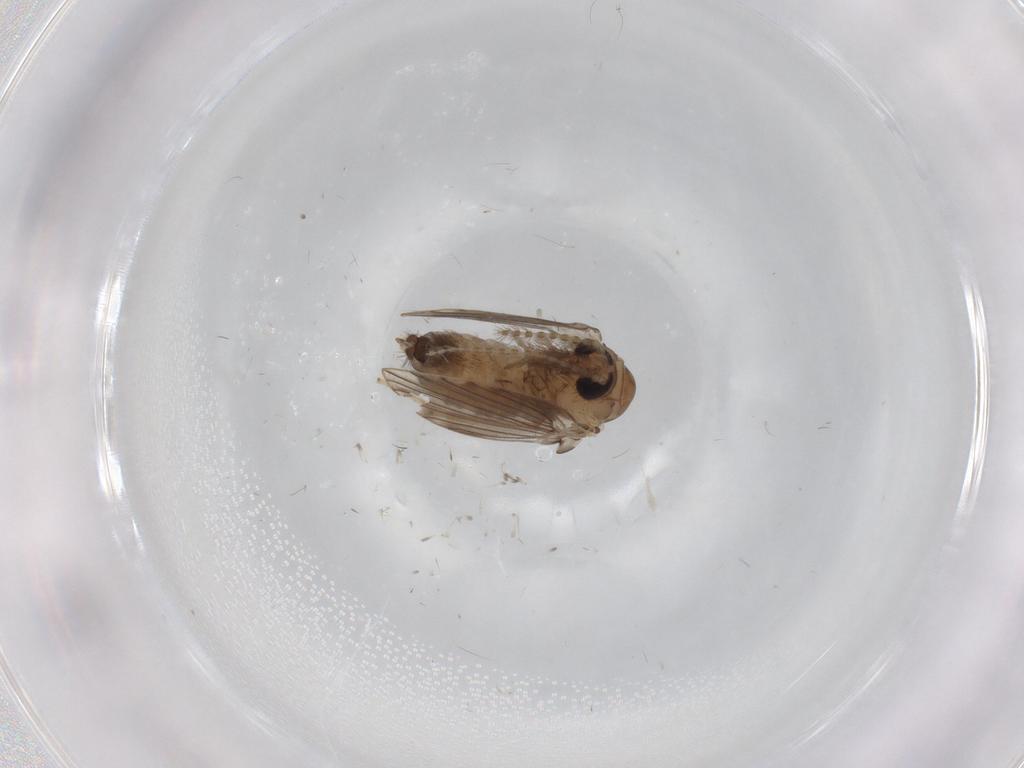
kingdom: Animalia
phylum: Arthropoda
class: Insecta
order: Diptera
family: Psychodidae
